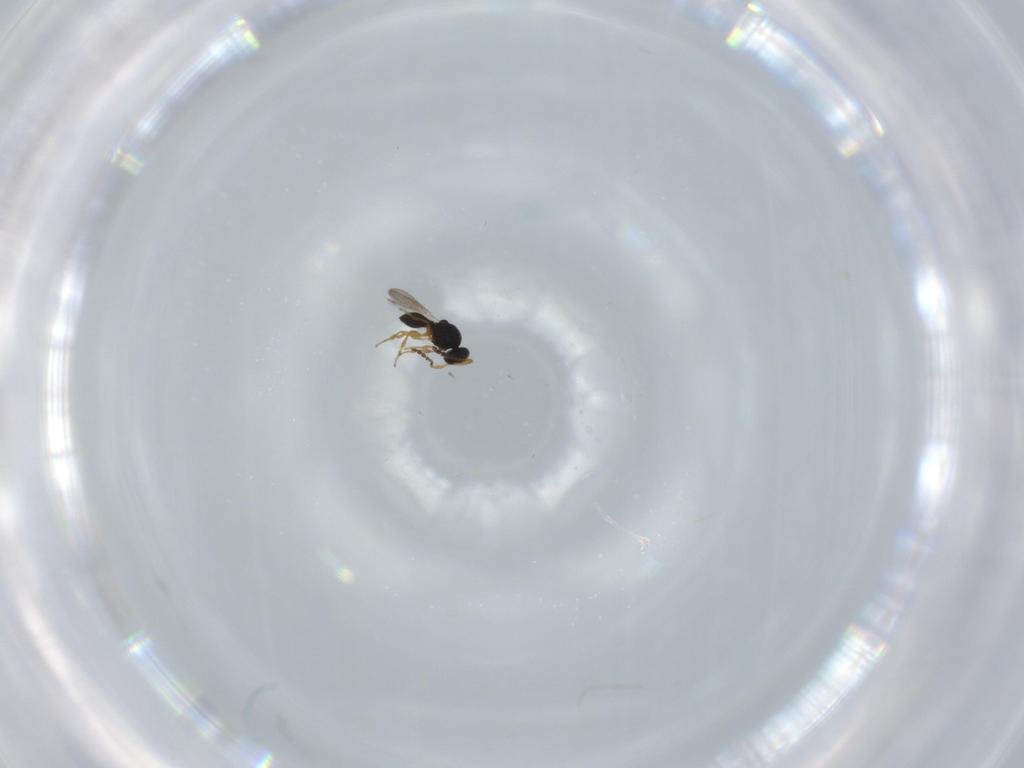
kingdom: Animalia
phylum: Arthropoda
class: Insecta
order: Hymenoptera
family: Platygastridae
